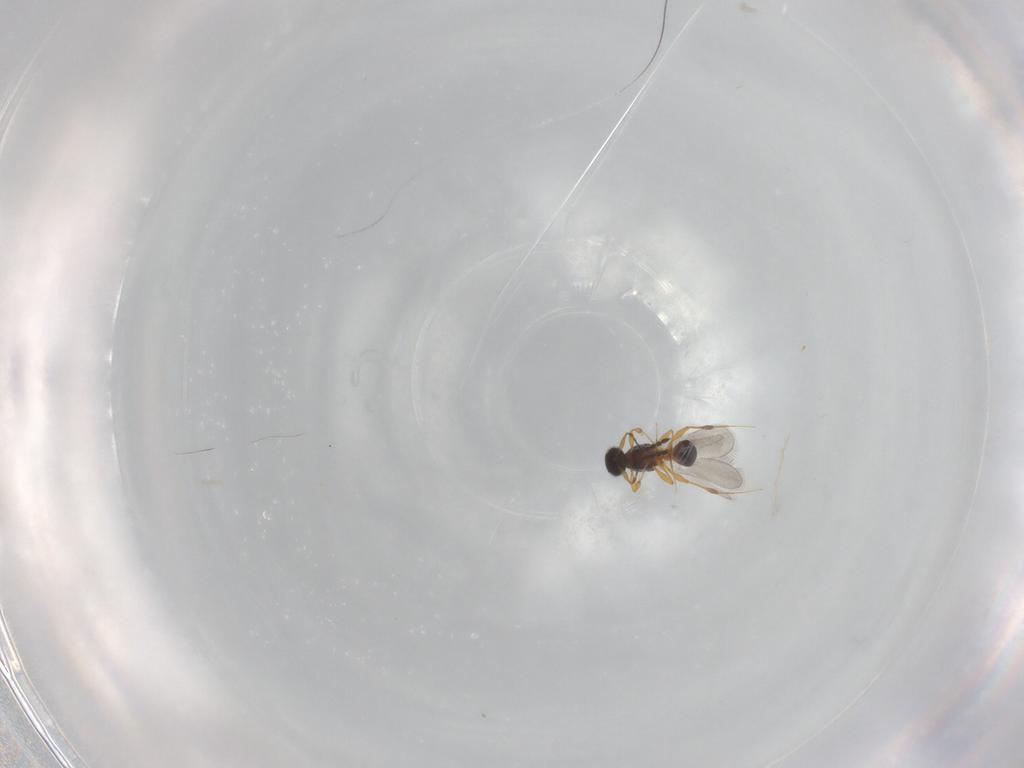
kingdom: Animalia
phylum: Arthropoda
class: Insecta
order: Hymenoptera
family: Platygastridae
